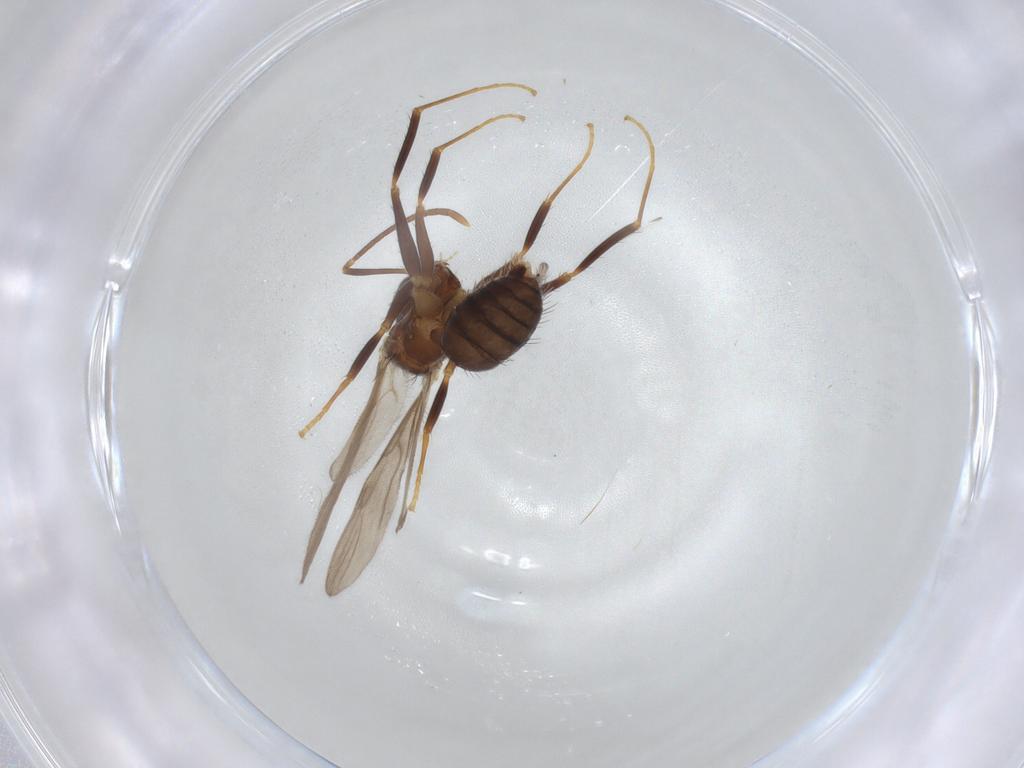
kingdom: Animalia
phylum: Arthropoda
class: Insecta
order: Hymenoptera
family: Formicidae
